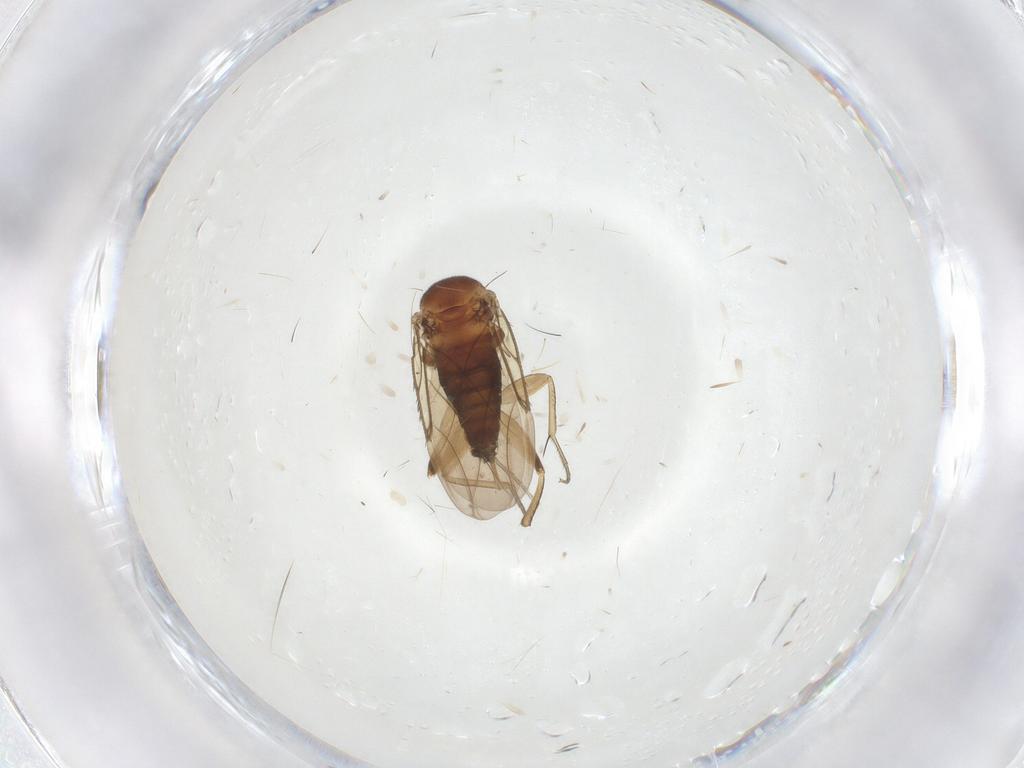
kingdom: Animalia
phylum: Arthropoda
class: Insecta
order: Diptera
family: Phoridae
